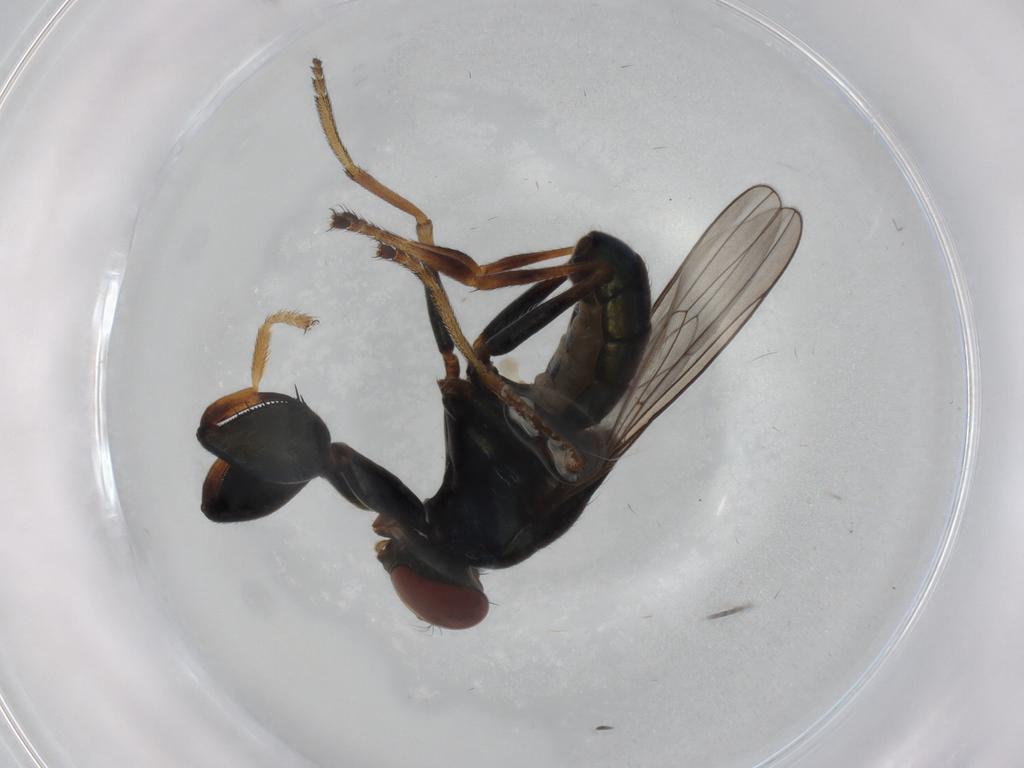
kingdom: Animalia
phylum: Arthropoda
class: Insecta
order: Diptera
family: Ephydridae
